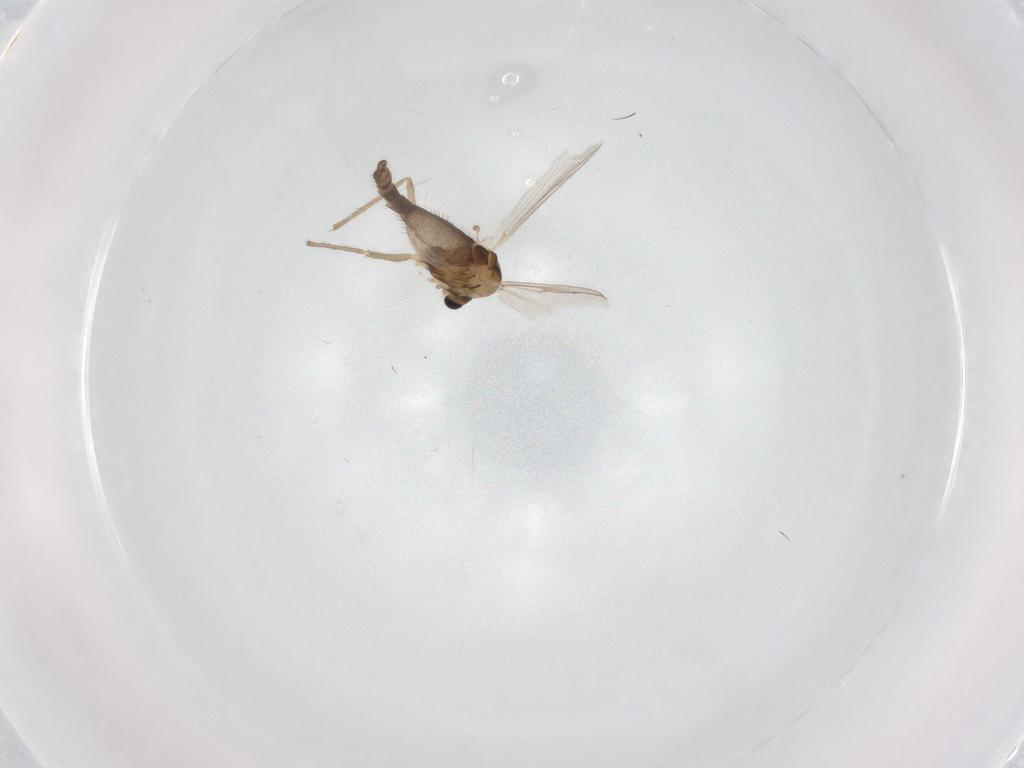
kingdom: Animalia
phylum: Arthropoda
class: Insecta
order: Diptera
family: Chironomidae
